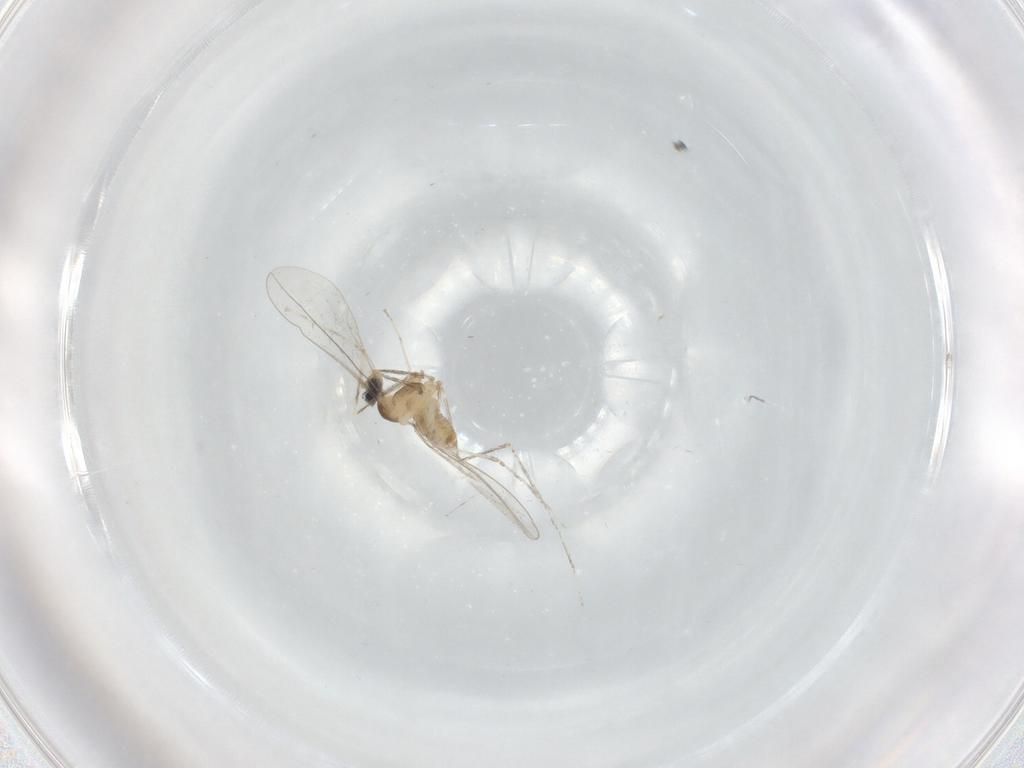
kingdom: Animalia
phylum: Arthropoda
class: Insecta
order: Diptera
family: Cecidomyiidae
